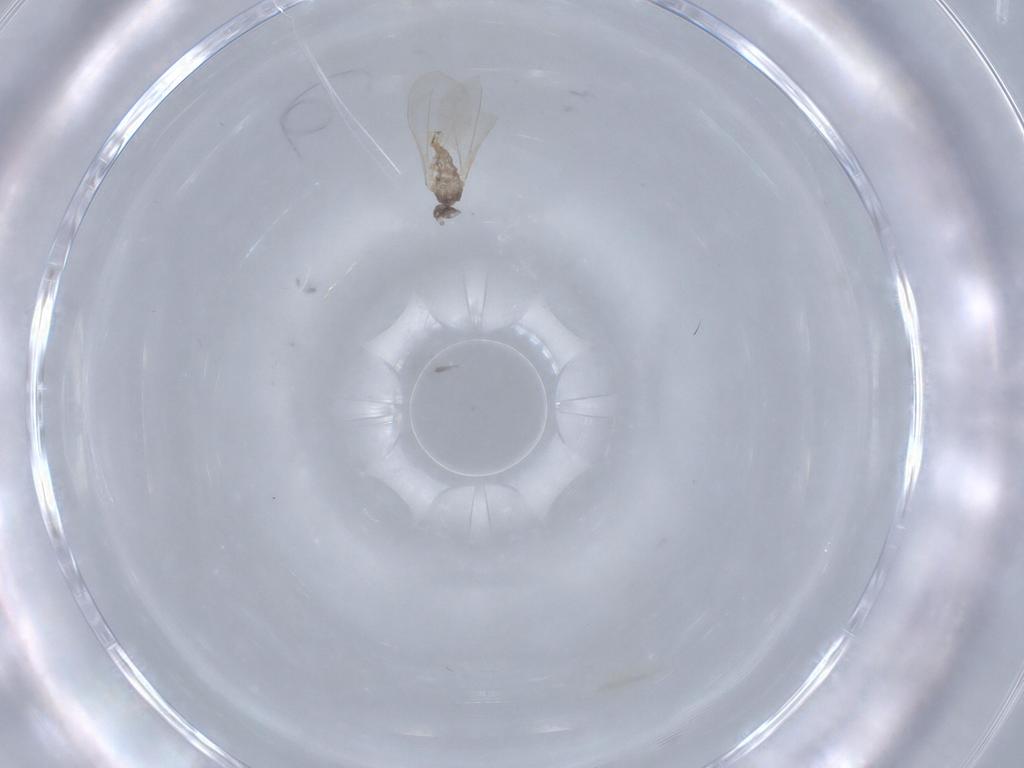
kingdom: Animalia
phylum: Arthropoda
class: Insecta
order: Diptera
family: Cecidomyiidae
